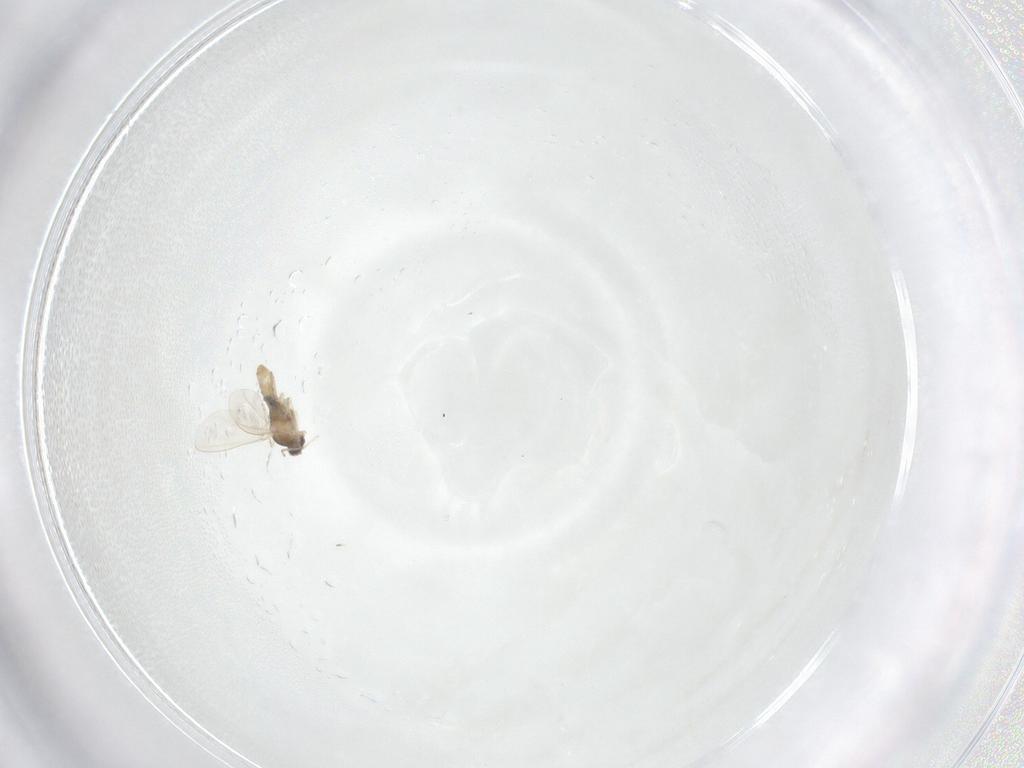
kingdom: Animalia
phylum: Arthropoda
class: Insecta
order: Diptera
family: Cecidomyiidae
